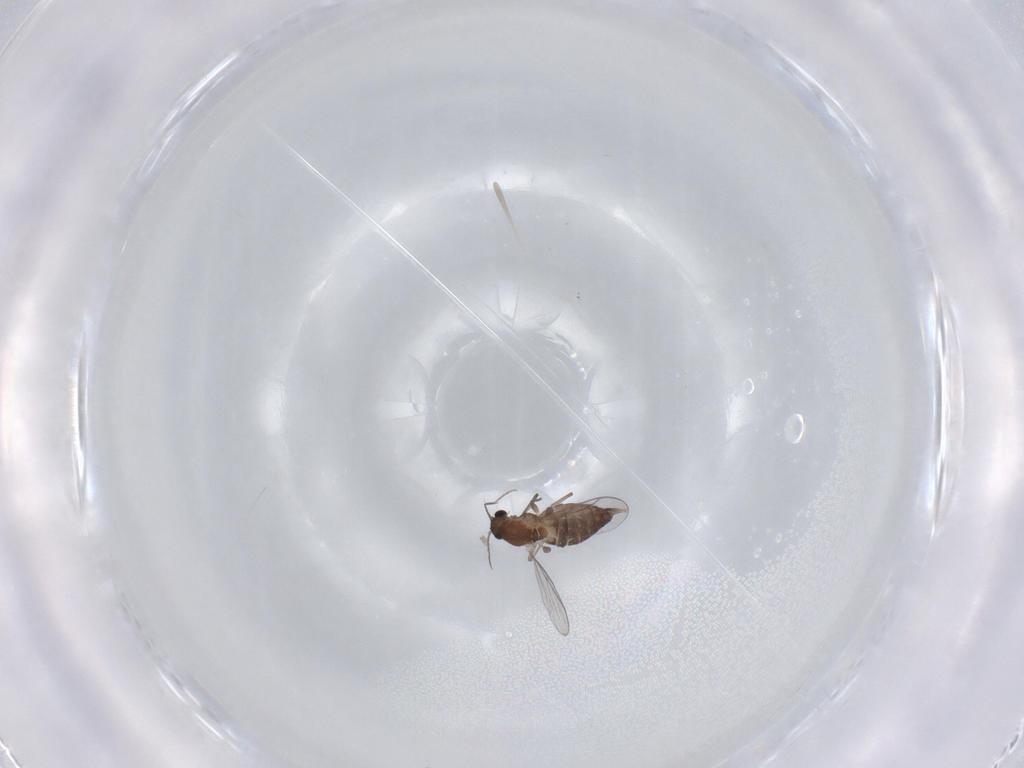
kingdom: Animalia
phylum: Arthropoda
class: Insecta
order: Diptera
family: Chironomidae
